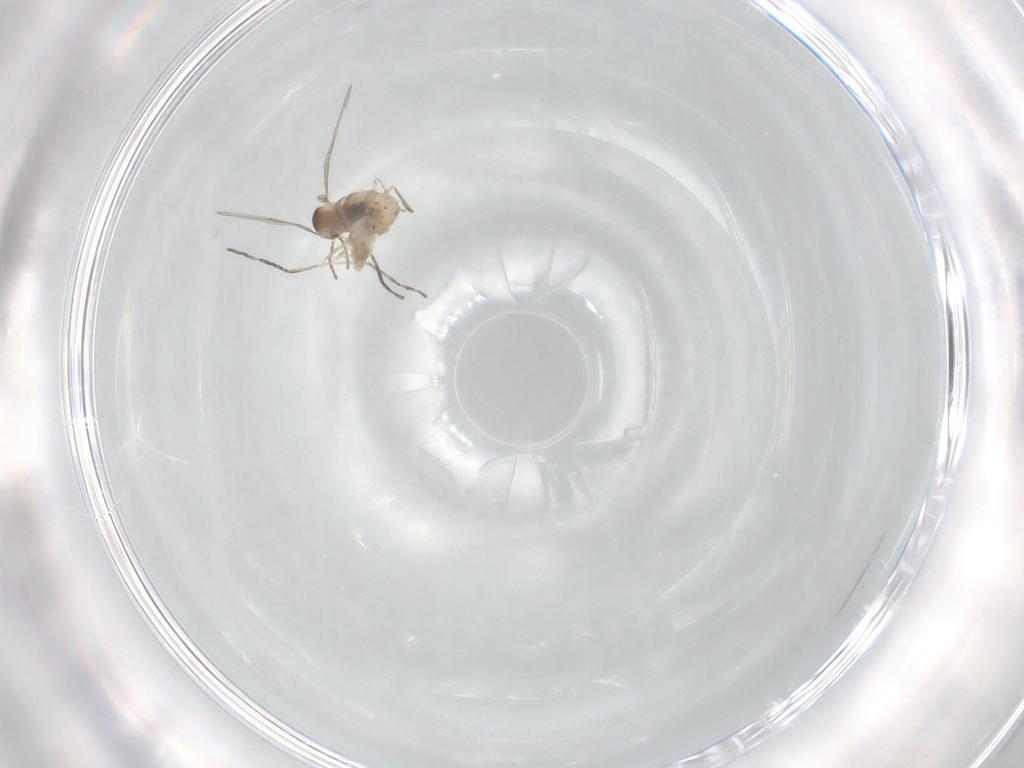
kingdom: Animalia
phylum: Arthropoda
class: Insecta
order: Diptera
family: Cecidomyiidae
